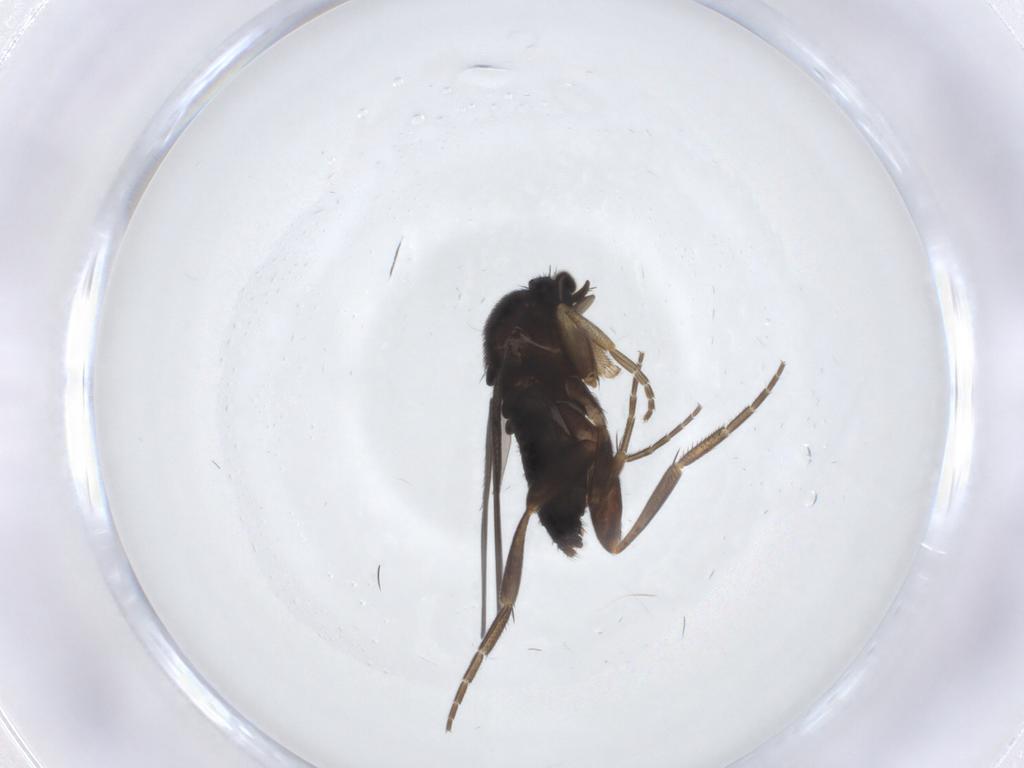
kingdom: Animalia
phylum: Arthropoda
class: Insecta
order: Diptera
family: Phoridae
